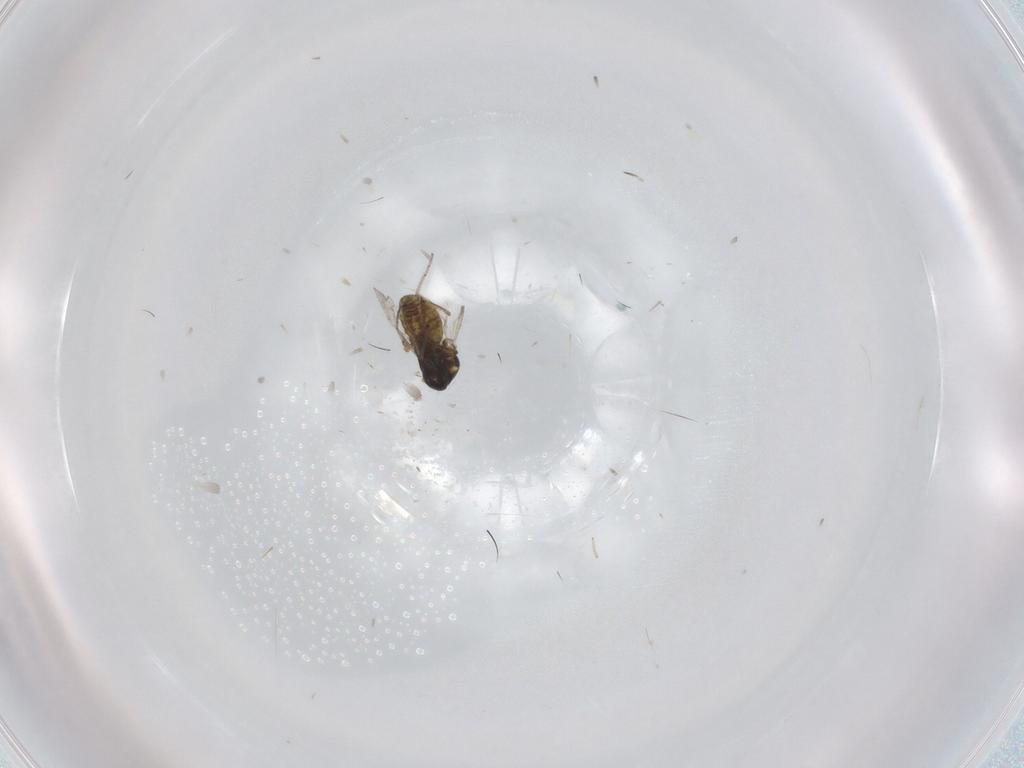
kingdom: Animalia
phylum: Arthropoda
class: Insecta
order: Diptera
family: Ceratopogonidae
